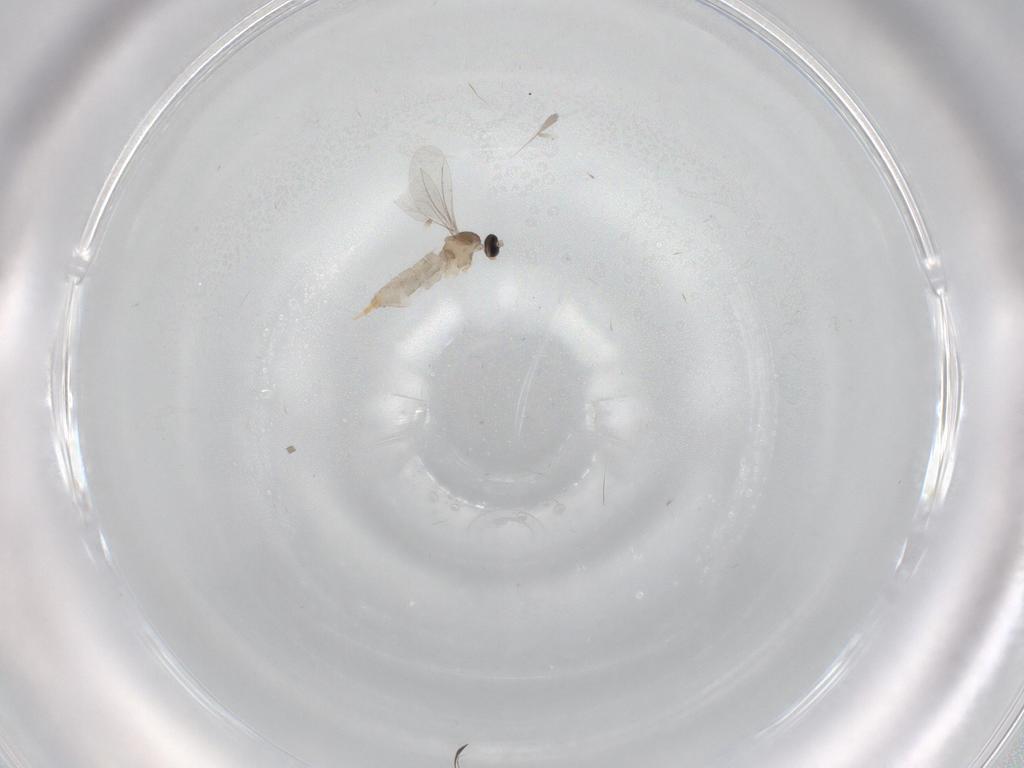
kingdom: Animalia
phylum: Arthropoda
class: Insecta
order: Diptera
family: Cecidomyiidae
